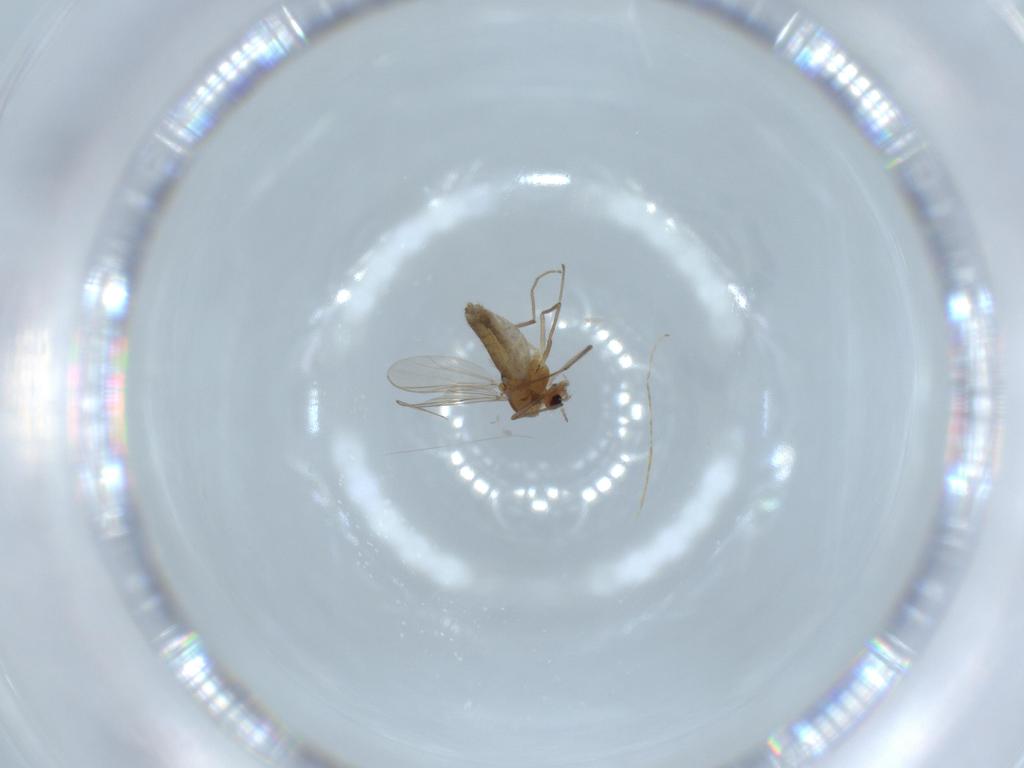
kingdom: Animalia
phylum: Arthropoda
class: Insecta
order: Diptera
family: Chironomidae
